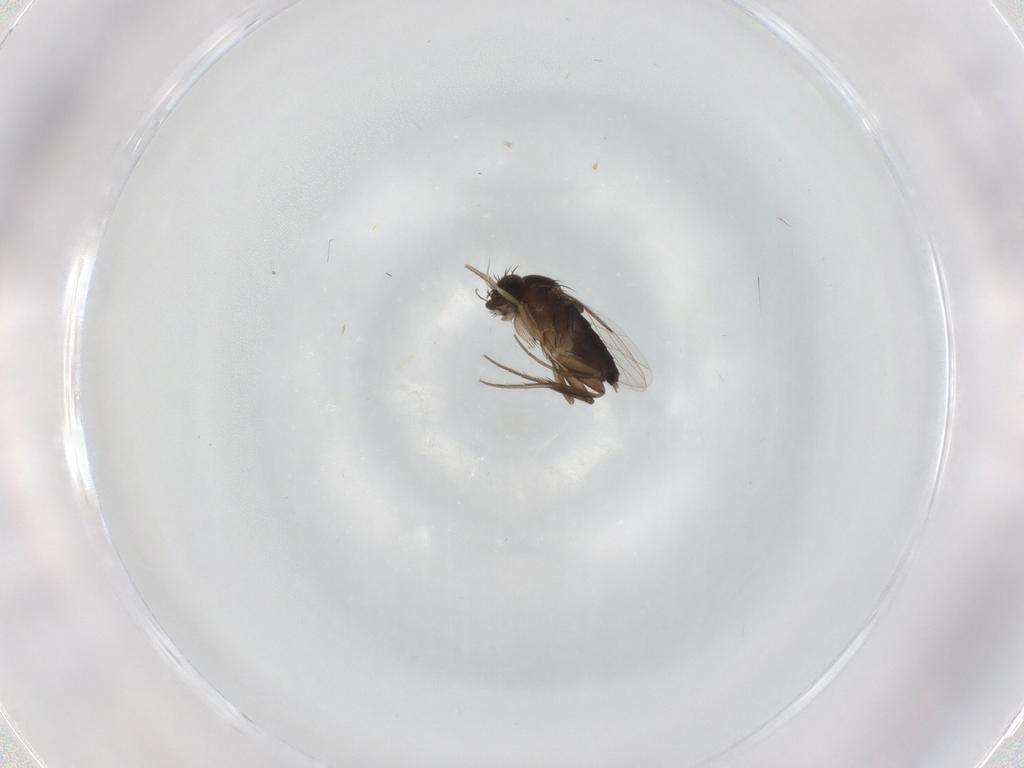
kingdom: Animalia
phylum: Arthropoda
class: Insecta
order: Diptera
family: Phoridae
